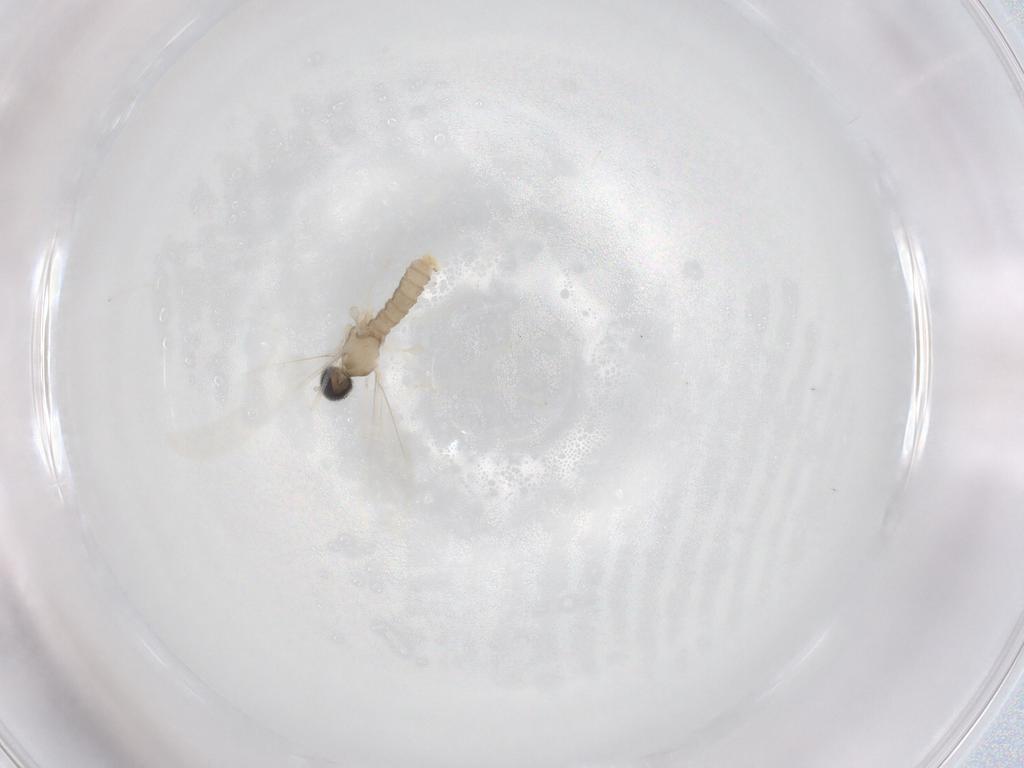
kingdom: Animalia
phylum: Arthropoda
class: Insecta
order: Diptera
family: Cecidomyiidae
